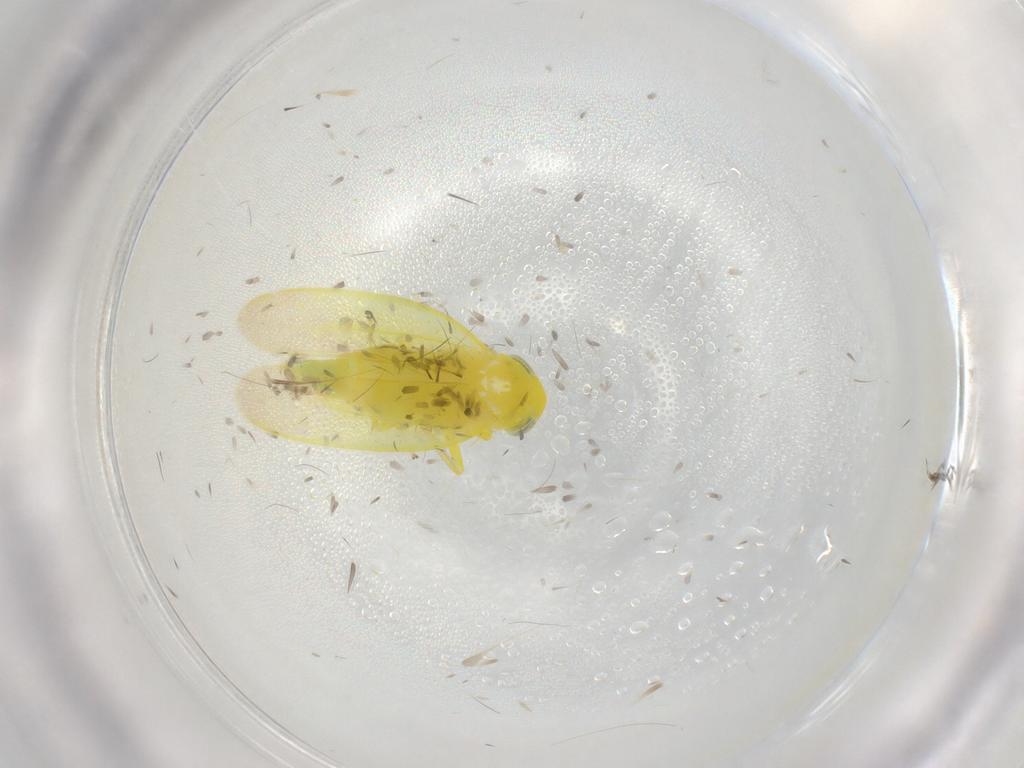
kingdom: Animalia
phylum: Arthropoda
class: Insecta
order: Hemiptera
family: Cicadellidae
